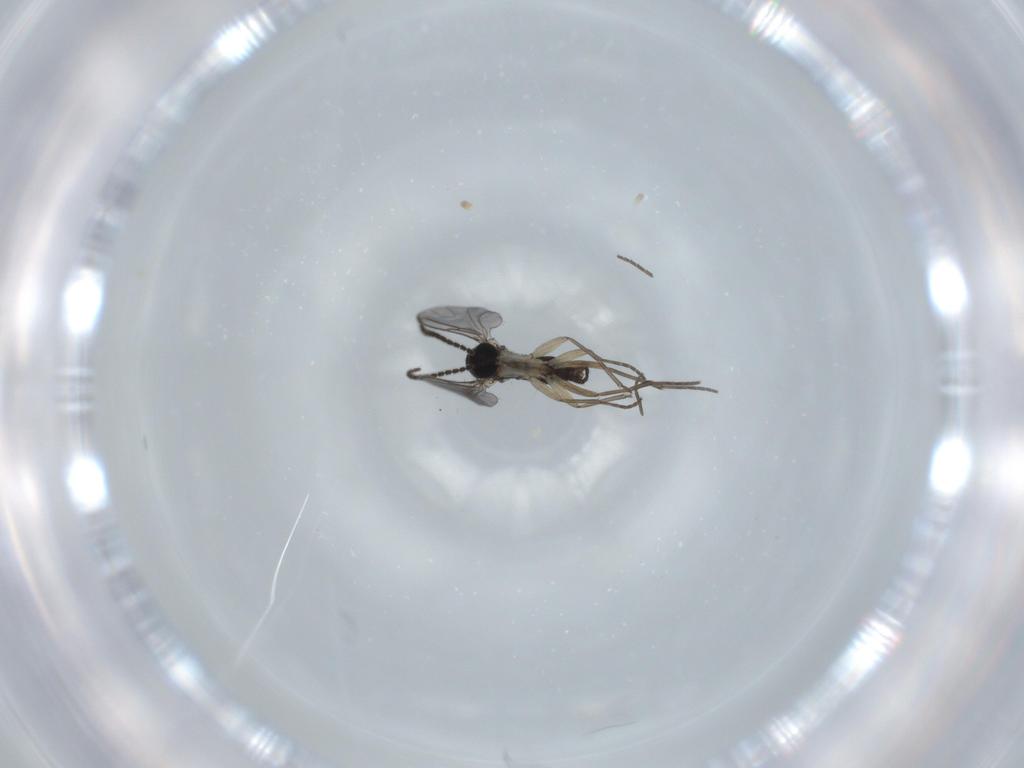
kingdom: Animalia
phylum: Arthropoda
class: Insecta
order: Diptera
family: Sciaridae
